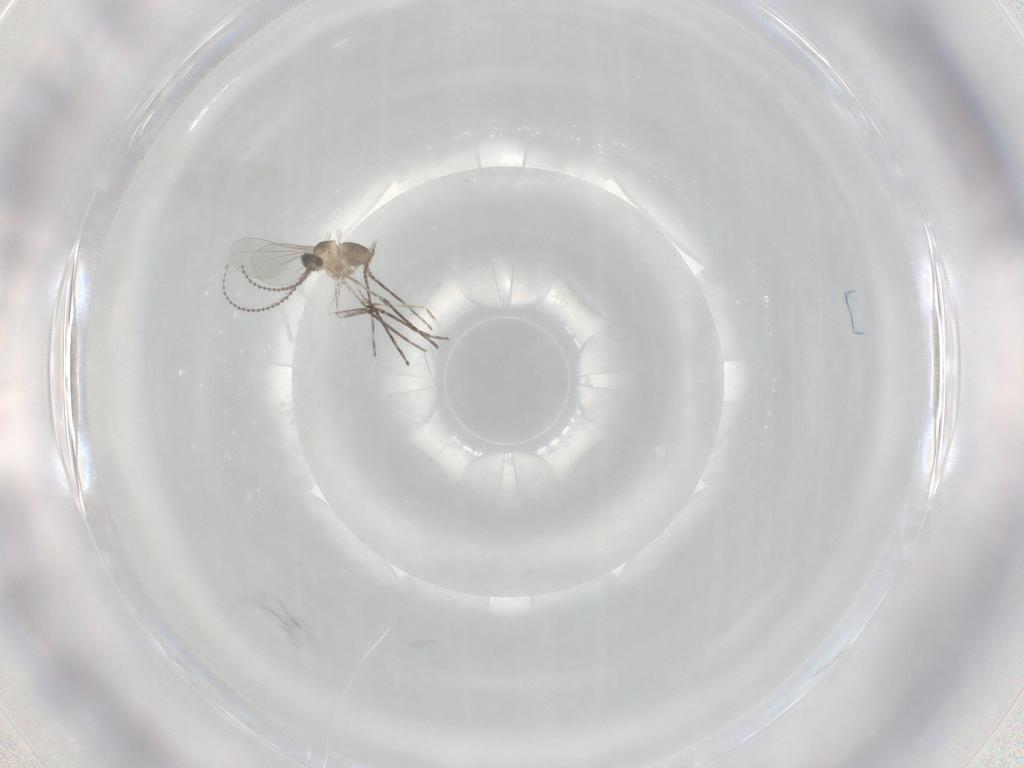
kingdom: Animalia
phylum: Arthropoda
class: Insecta
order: Diptera
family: Cecidomyiidae
